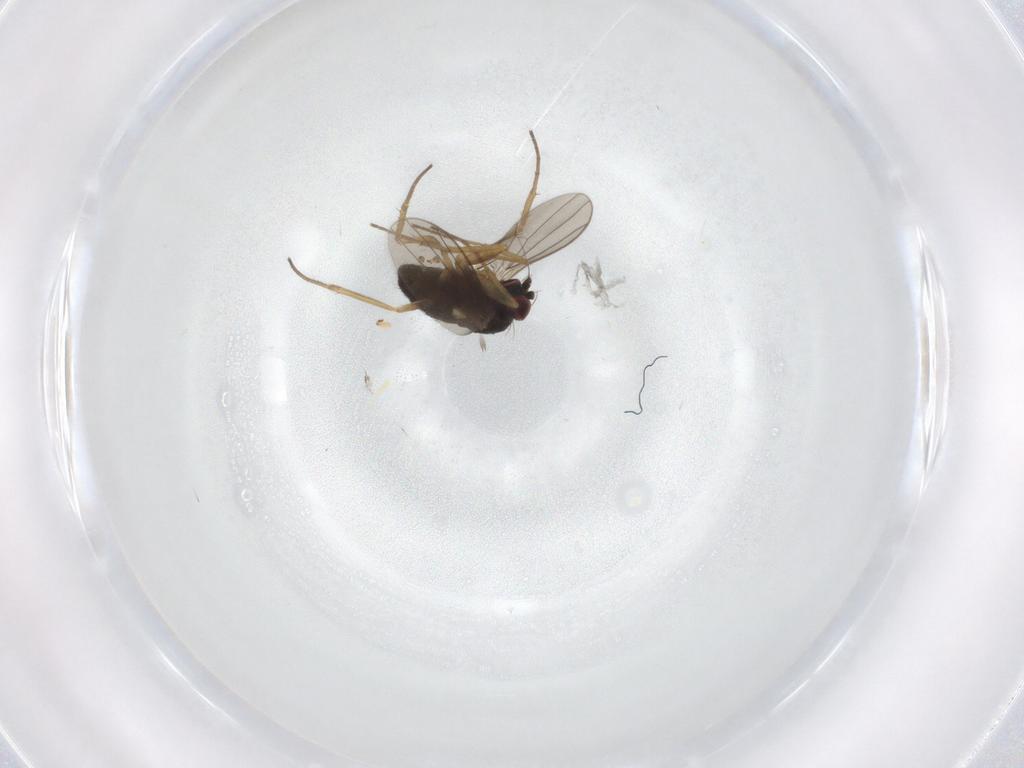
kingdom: Animalia
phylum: Arthropoda
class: Insecta
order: Diptera
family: Dolichopodidae
